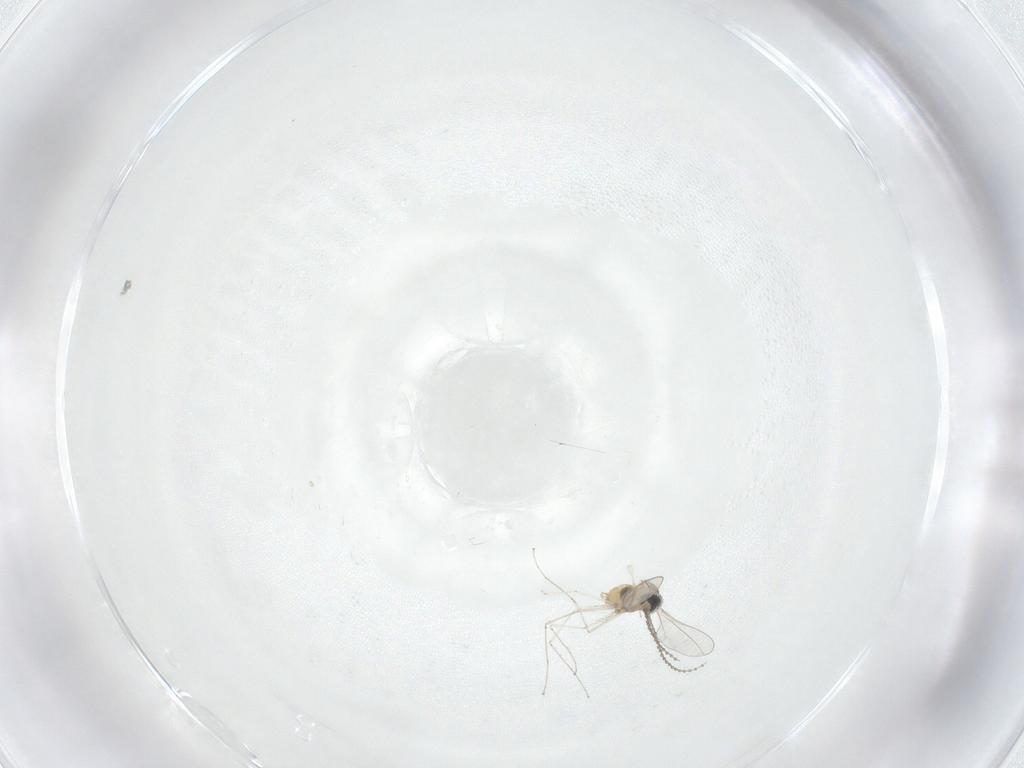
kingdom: Animalia
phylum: Arthropoda
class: Insecta
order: Diptera
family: Cecidomyiidae
